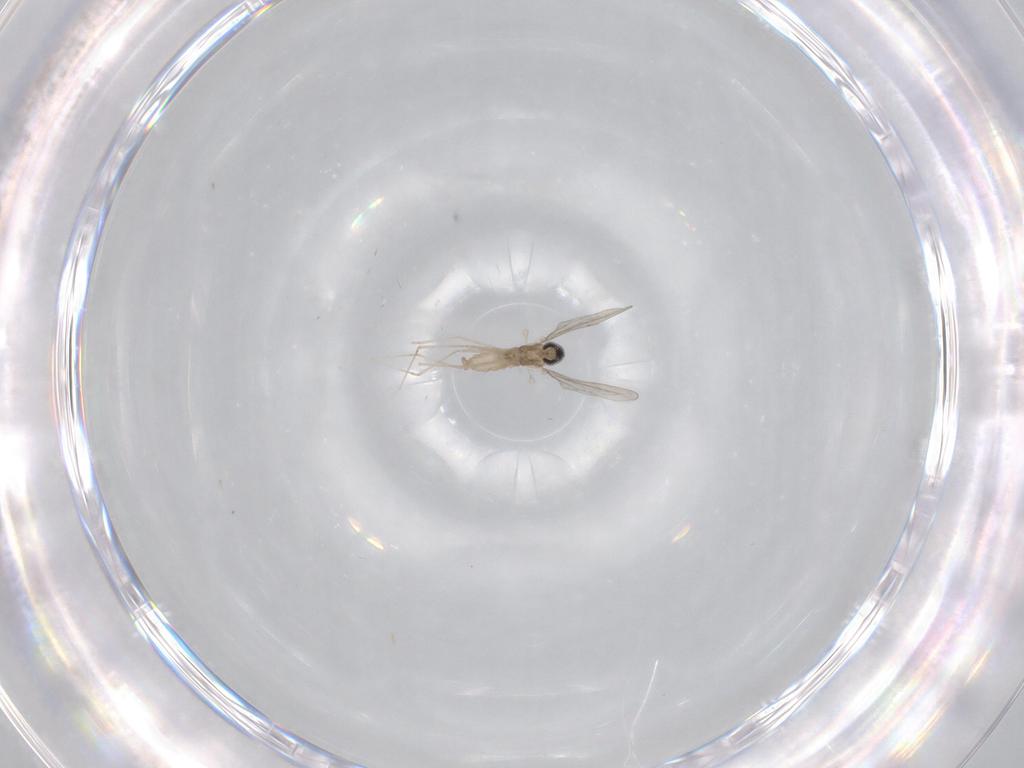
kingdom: Animalia
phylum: Arthropoda
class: Insecta
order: Diptera
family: Cecidomyiidae
